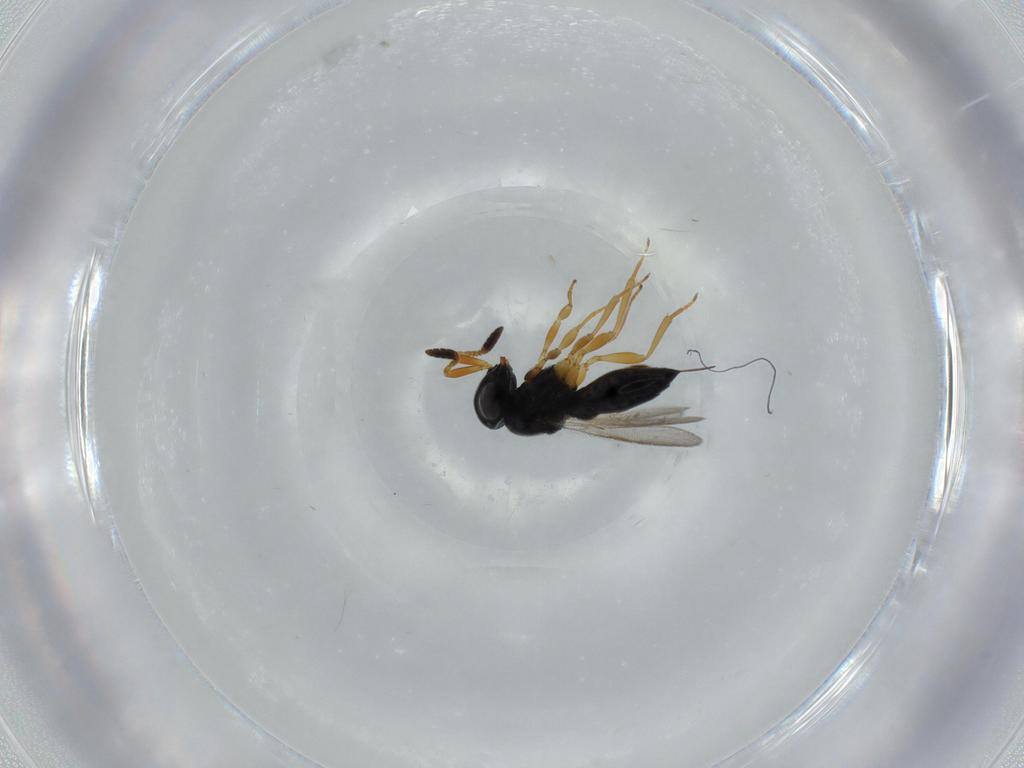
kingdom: Animalia
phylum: Arthropoda
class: Insecta
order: Hymenoptera
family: Scelionidae
